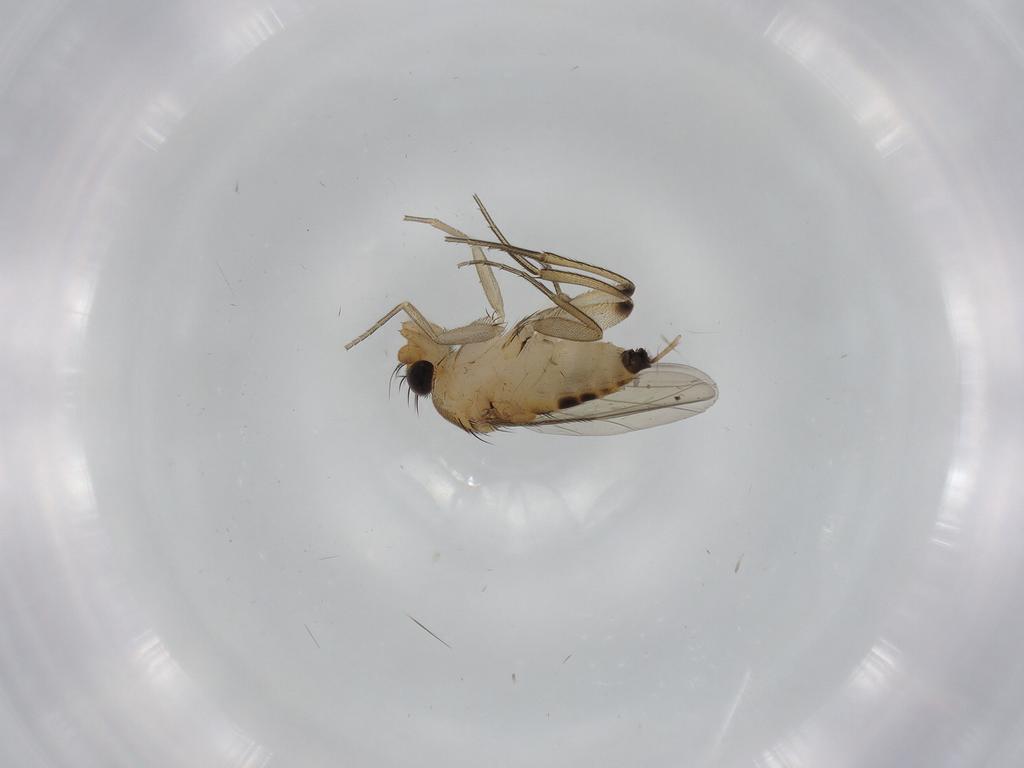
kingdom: Animalia
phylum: Arthropoda
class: Insecta
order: Diptera
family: Phoridae
